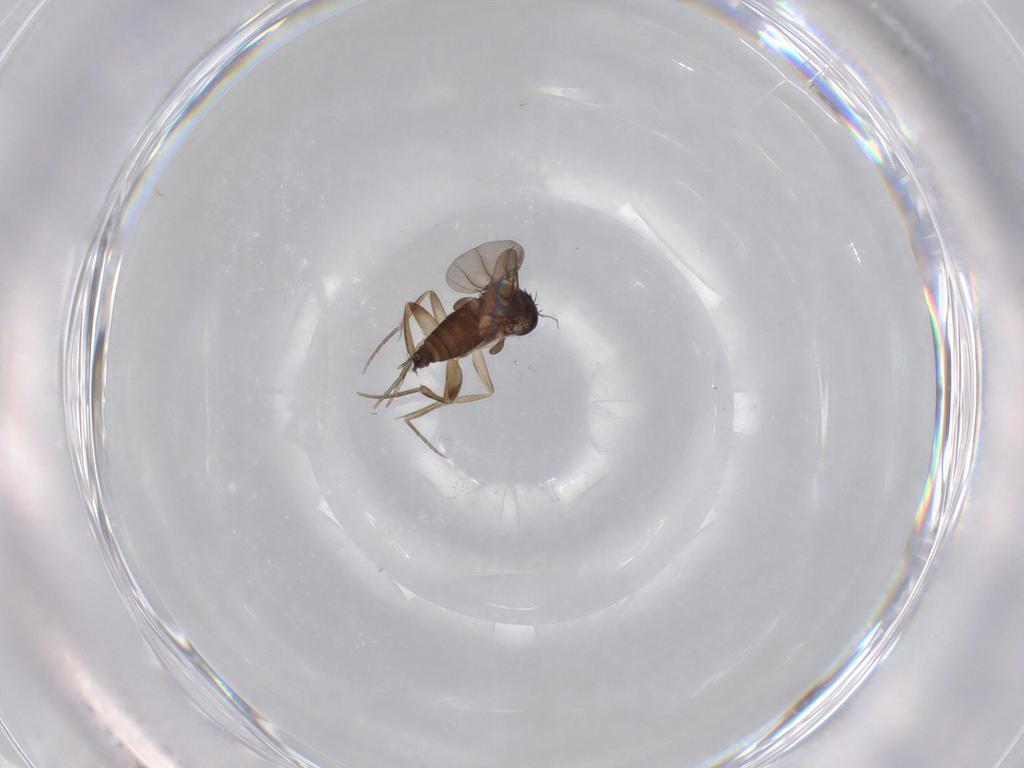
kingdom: Animalia
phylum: Arthropoda
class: Insecta
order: Diptera
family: Phoridae
